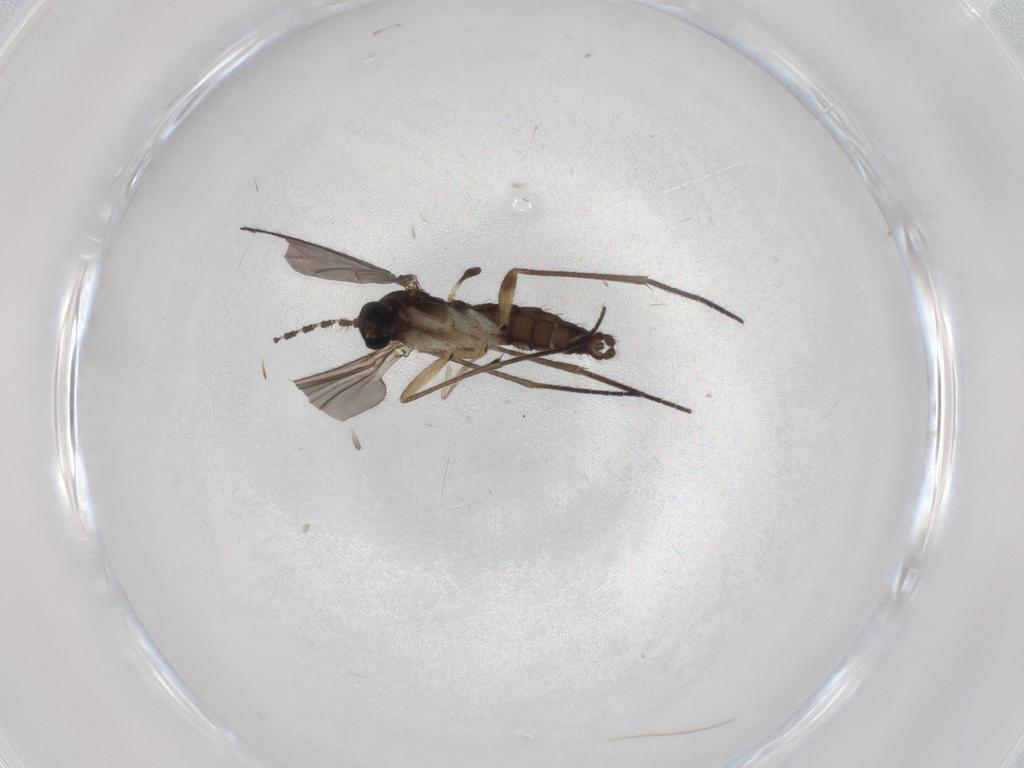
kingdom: Animalia
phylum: Arthropoda
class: Insecta
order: Diptera
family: Sciaridae
